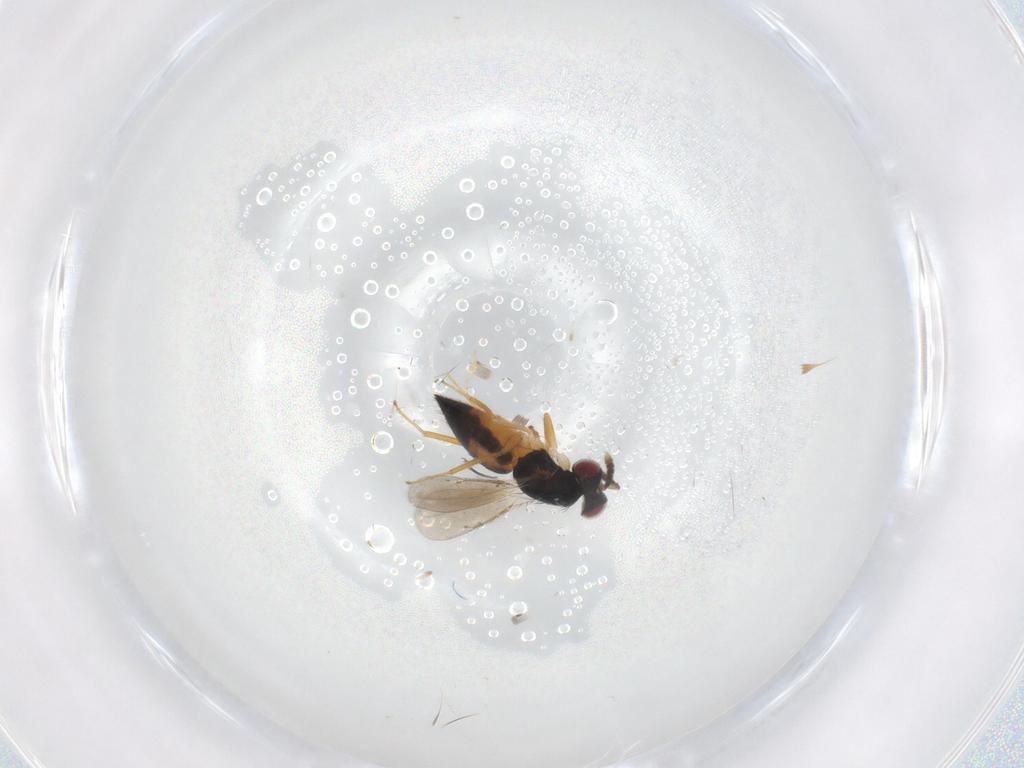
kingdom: Animalia
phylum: Arthropoda
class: Insecta
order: Hymenoptera
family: Eulophidae
